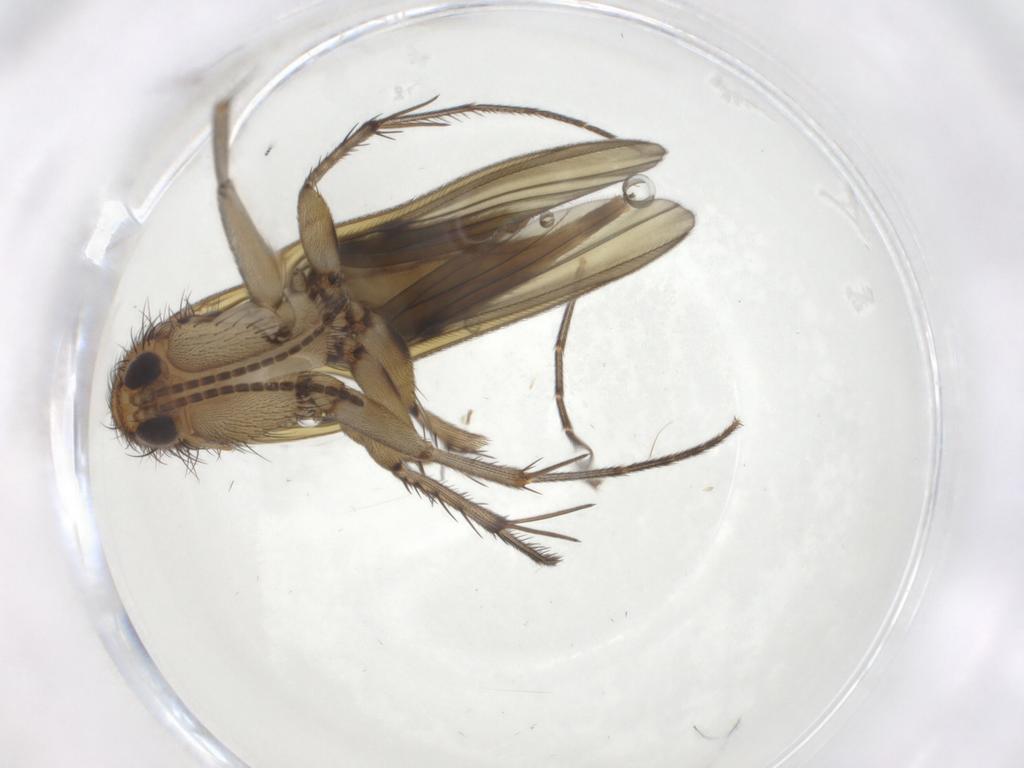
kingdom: Animalia
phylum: Arthropoda
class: Insecta
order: Diptera
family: Mycetophilidae
